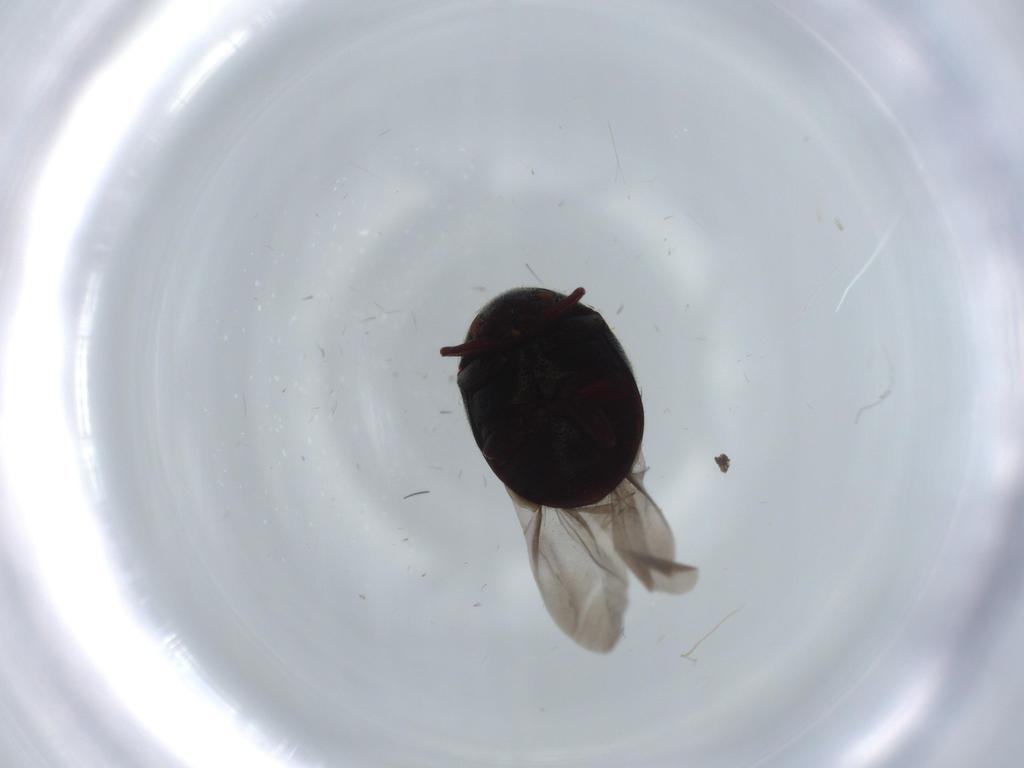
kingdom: Animalia
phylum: Arthropoda
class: Insecta
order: Coleoptera
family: Ptinidae
